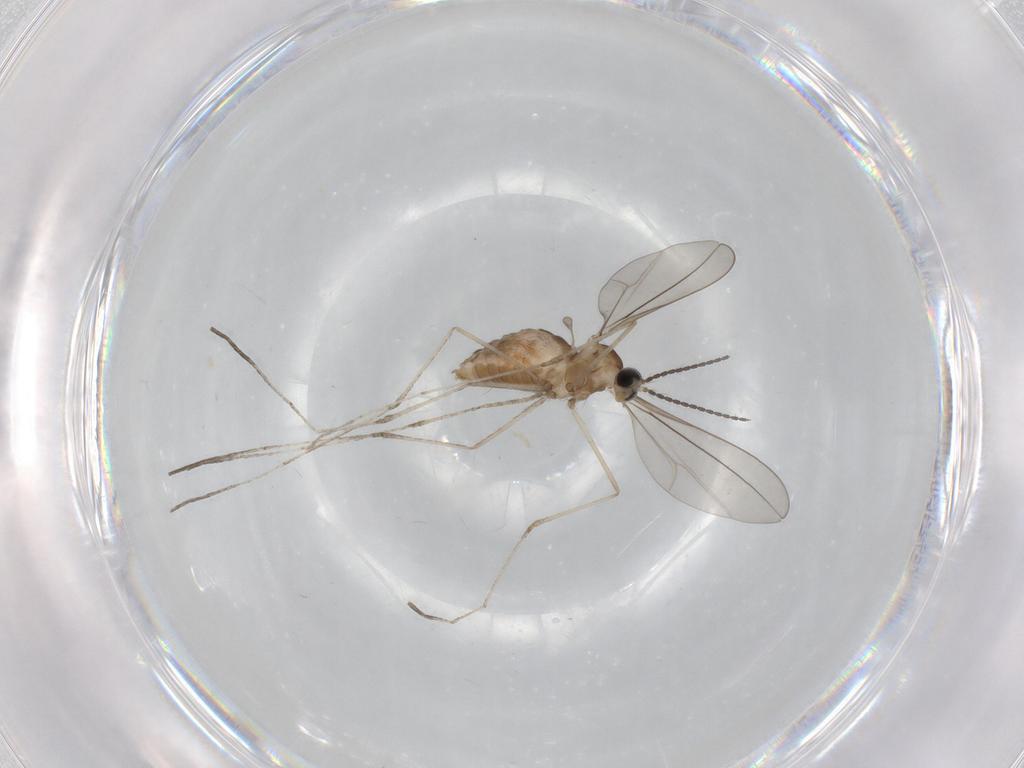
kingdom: Animalia
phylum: Arthropoda
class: Insecta
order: Diptera
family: Cecidomyiidae
